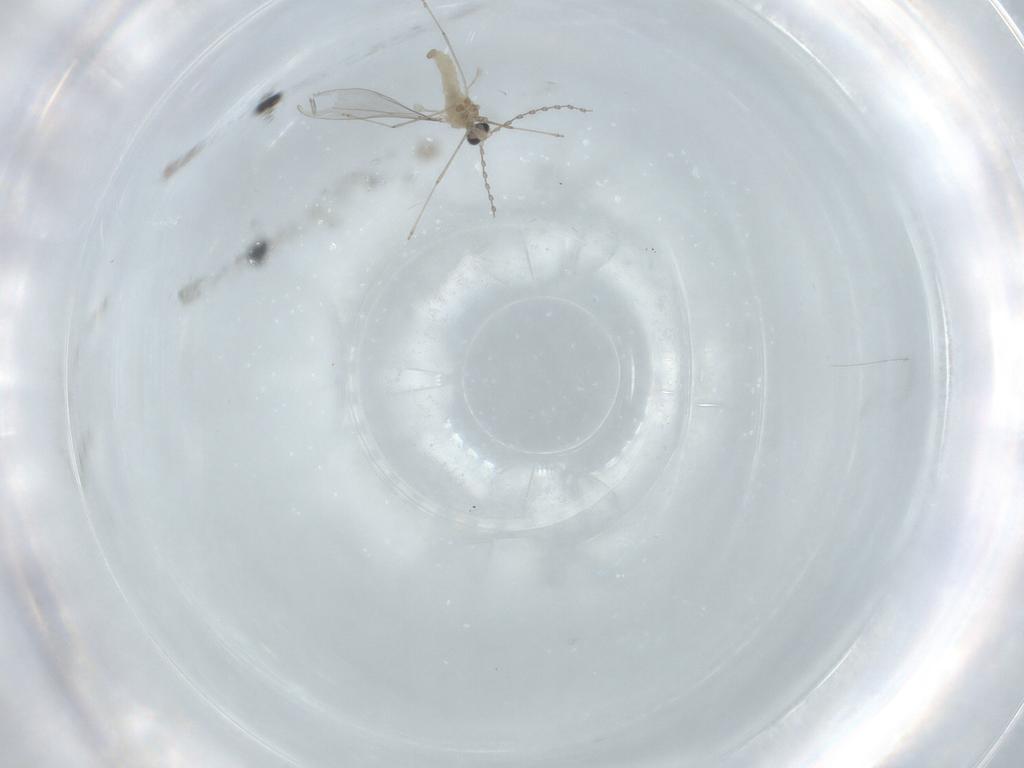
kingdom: Animalia
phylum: Arthropoda
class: Insecta
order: Diptera
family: Cecidomyiidae
